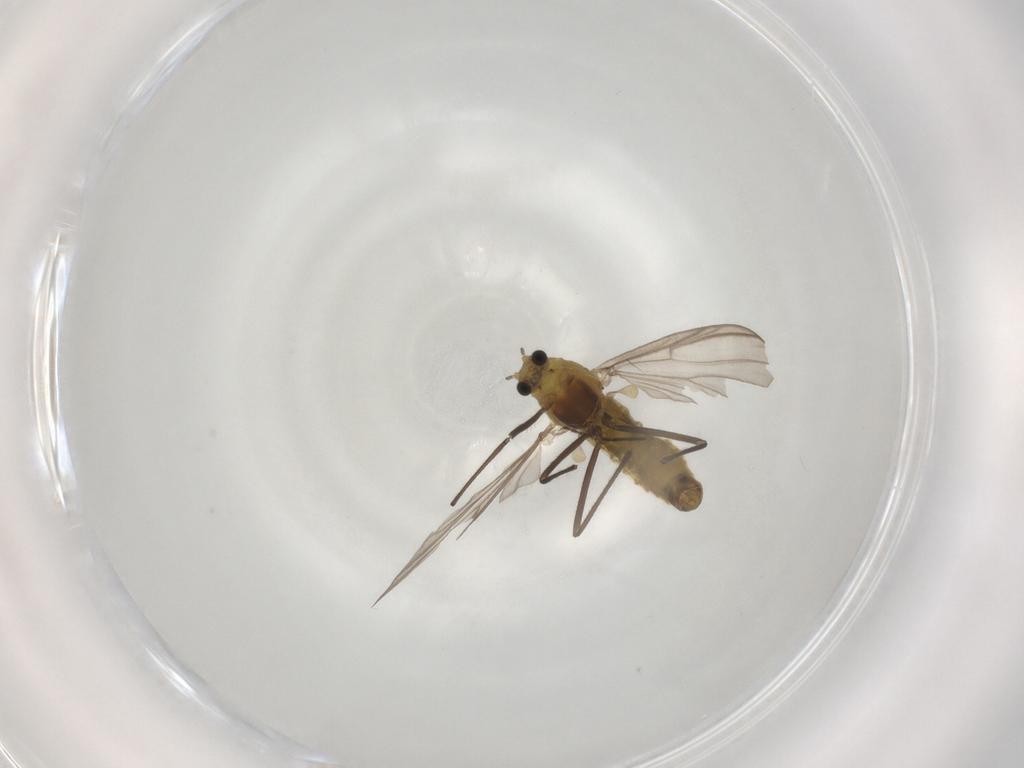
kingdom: Animalia
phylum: Arthropoda
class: Insecta
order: Diptera
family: Chironomidae
